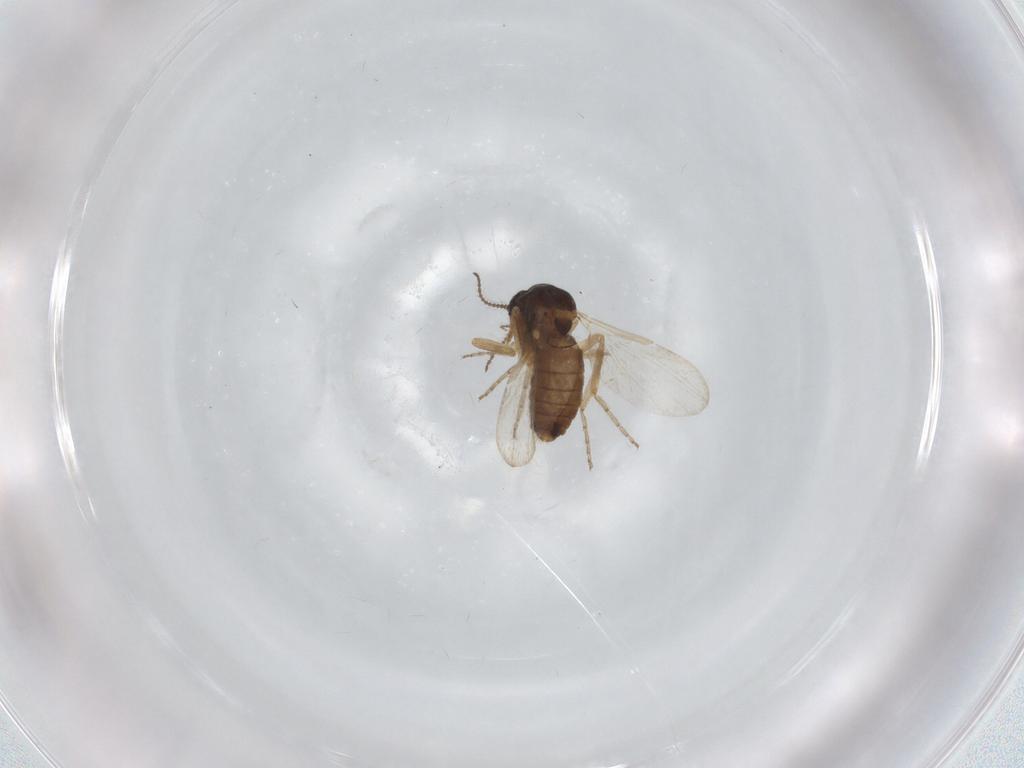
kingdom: Animalia
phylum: Arthropoda
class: Insecta
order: Diptera
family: Ceratopogonidae
